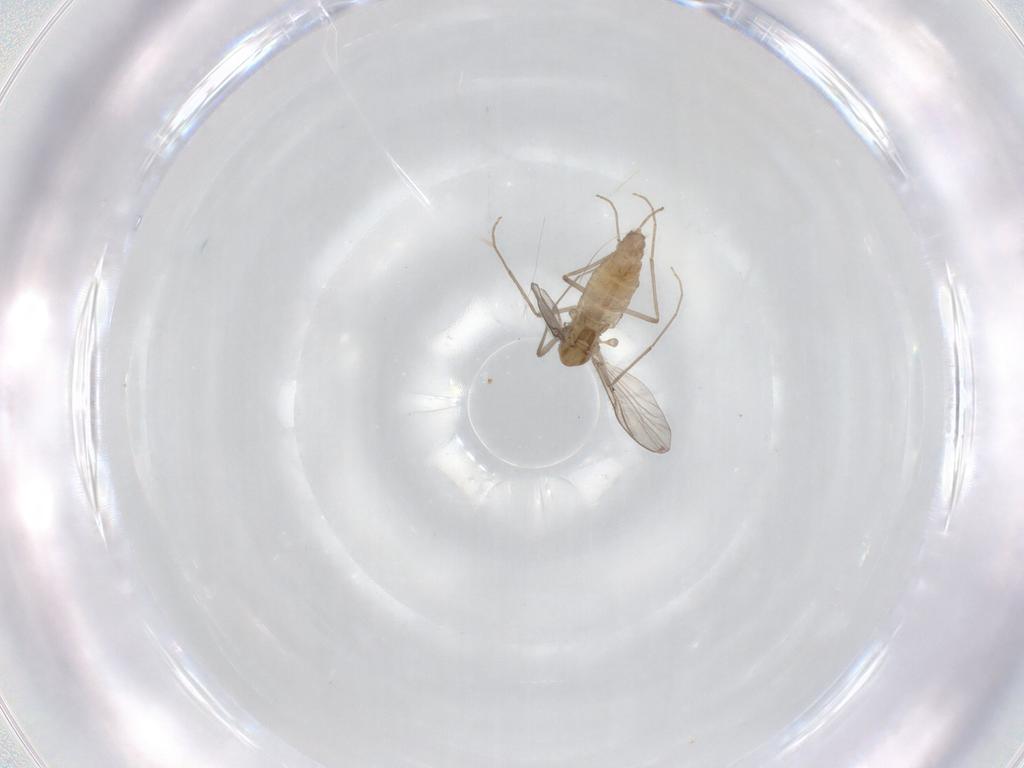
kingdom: Animalia
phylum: Arthropoda
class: Insecta
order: Diptera
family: Chironomidae
